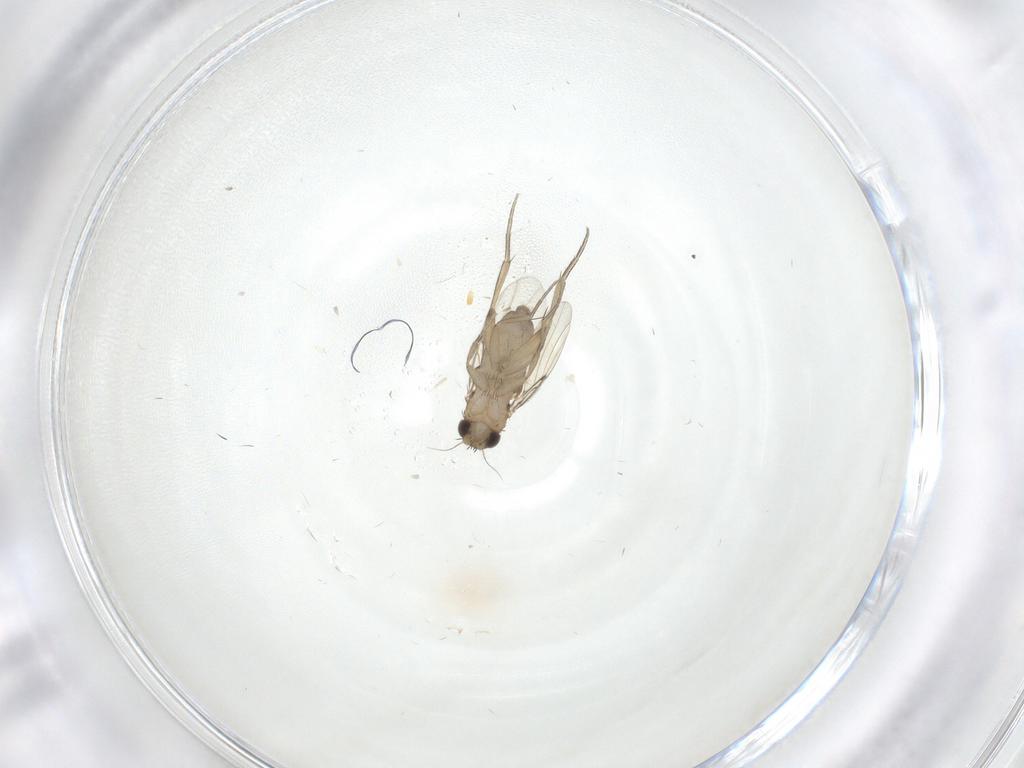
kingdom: Animalia
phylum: Arthropoda
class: Insecta
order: Diptera
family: Phoridae
